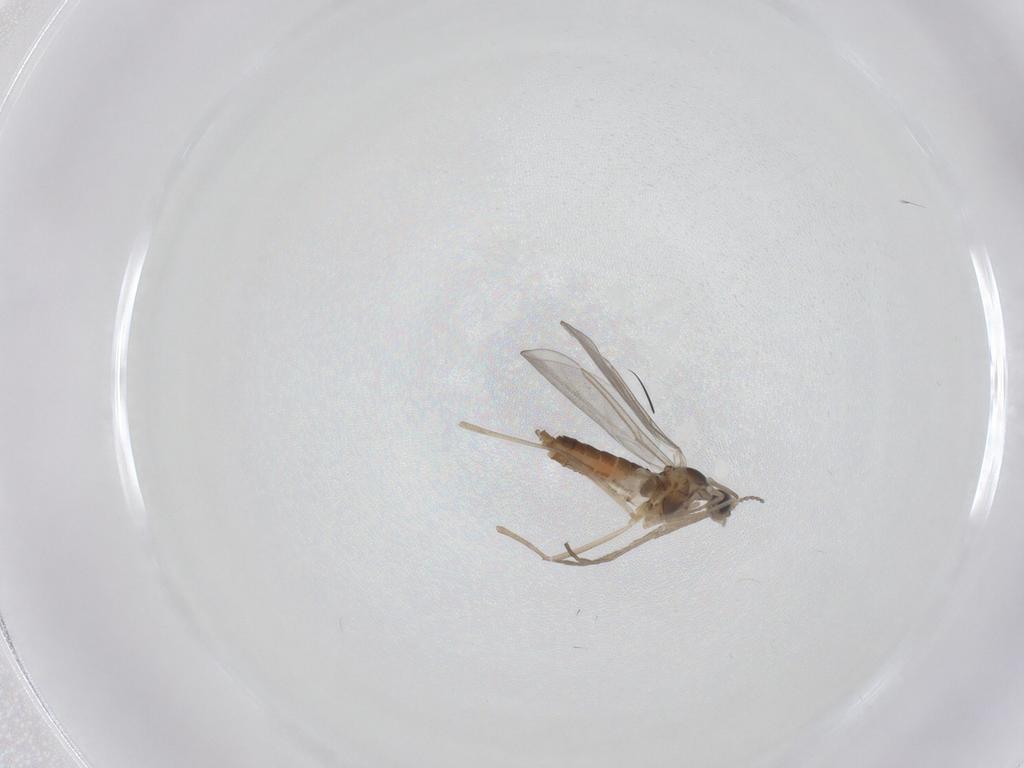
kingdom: Animalia
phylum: Arthropoda
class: Insecta
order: Diptera
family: Cecidomyiidae
